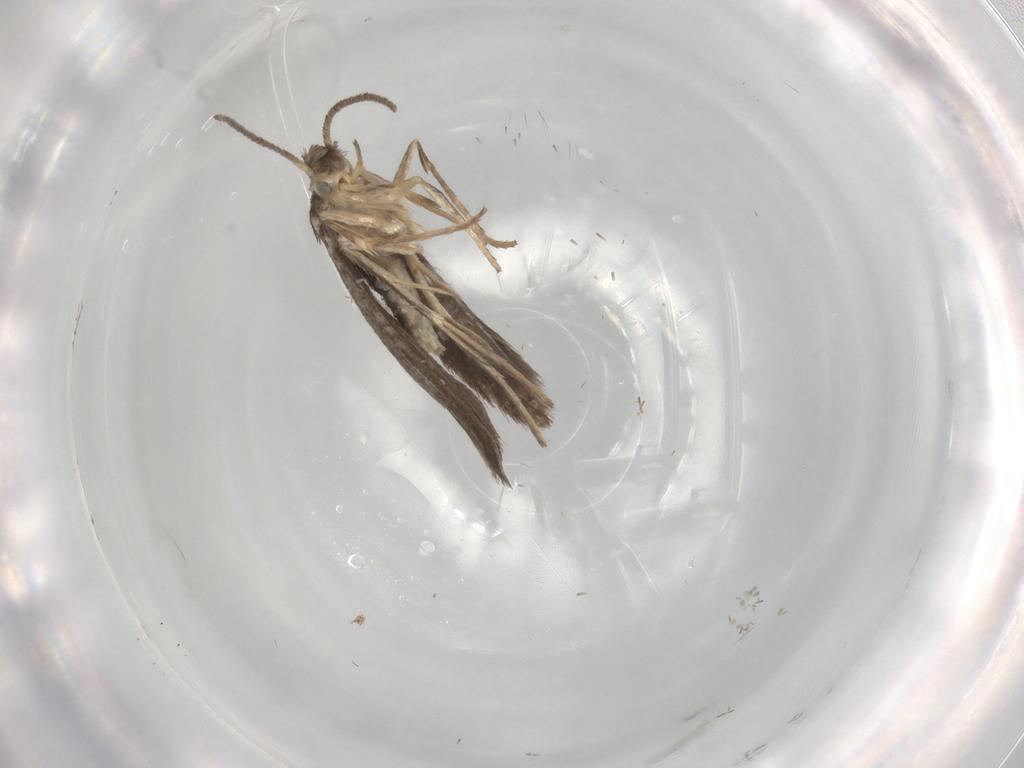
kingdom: Animalia
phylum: Arthropoda
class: Insecta
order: Lepidoptera
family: Schreckensteiniidae
